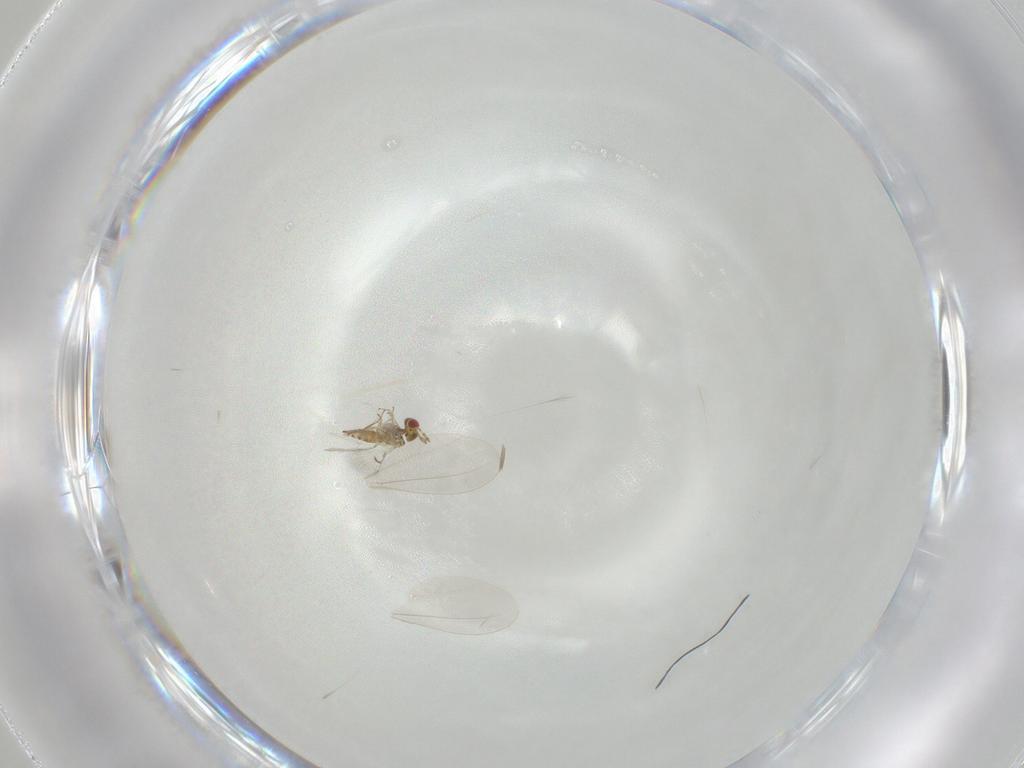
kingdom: Animalia
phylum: Arthropoda
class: Insecta
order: Hymenoptera
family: Trichogrammatidae
